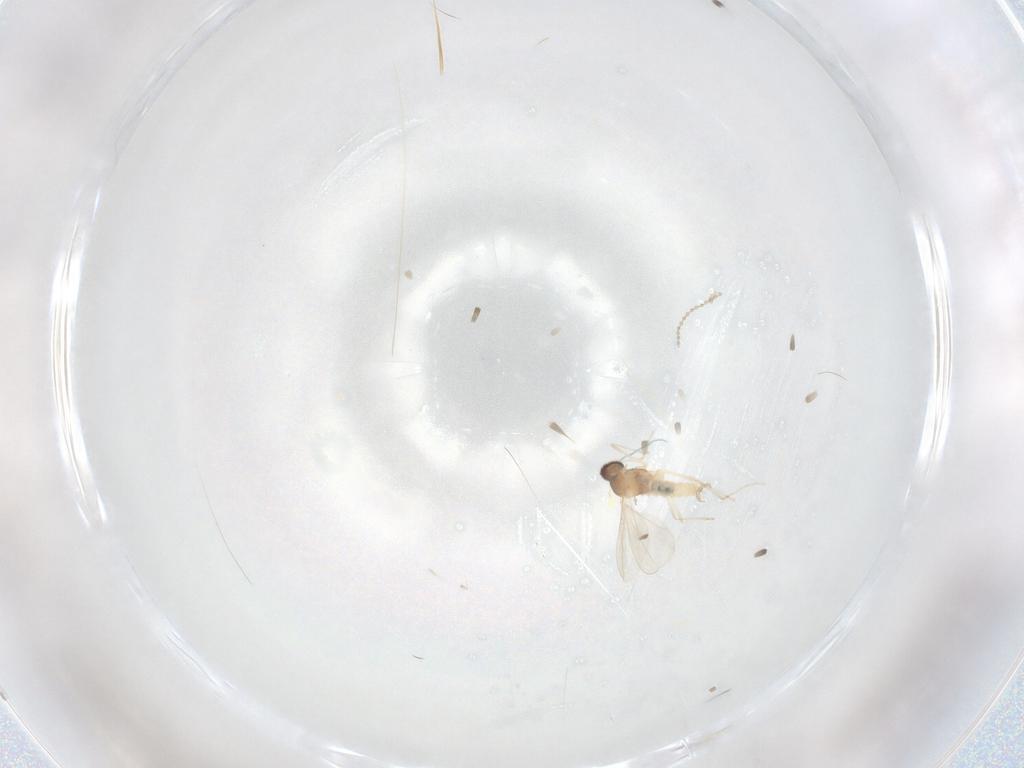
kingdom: Animalia
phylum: Arthropoda
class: Insecta
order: Diptera
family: Cecidomyiidae
